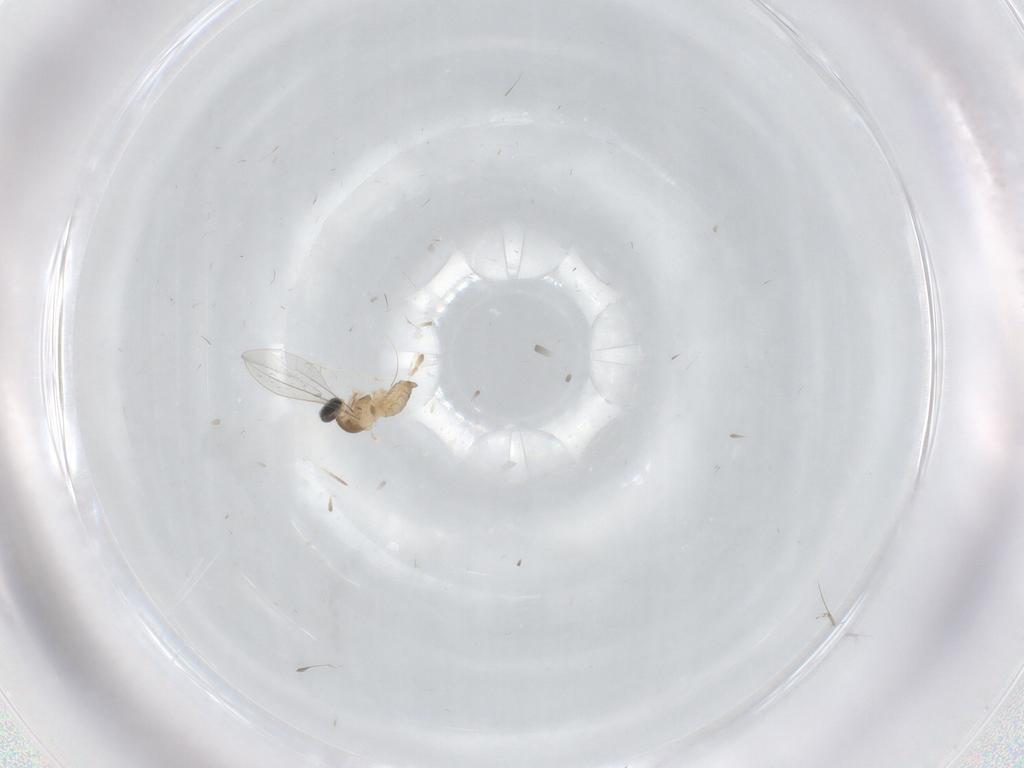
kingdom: Animalia
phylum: Arthropoda
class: Insecta
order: Diptera
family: Cecidomyiidae
